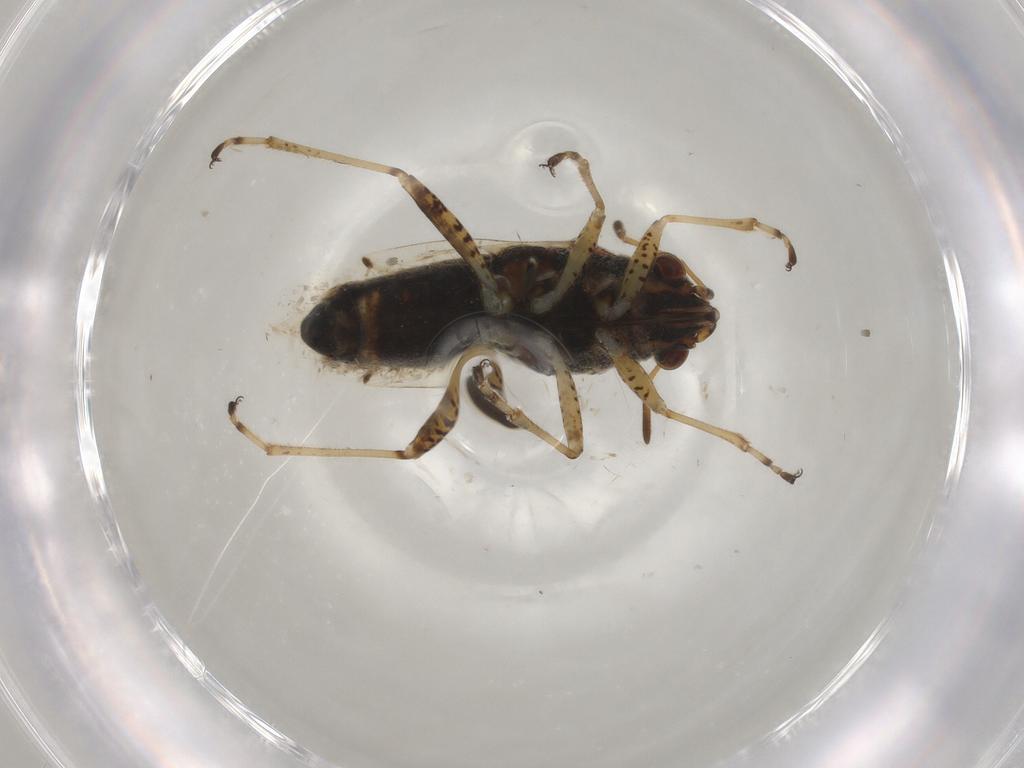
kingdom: Animalia
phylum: Arthropoda
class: Insecta
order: Hemiptera
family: Lygaeidae
